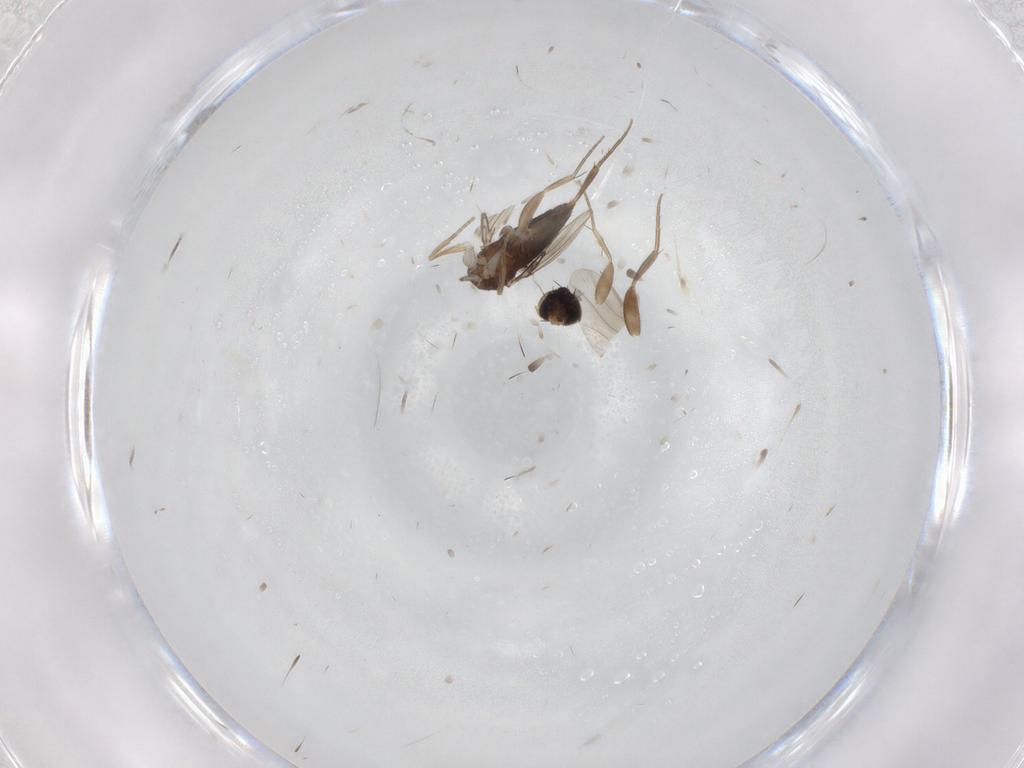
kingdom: Animalia
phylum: Arthropoda
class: Insecta
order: Diptera
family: Phoridae
